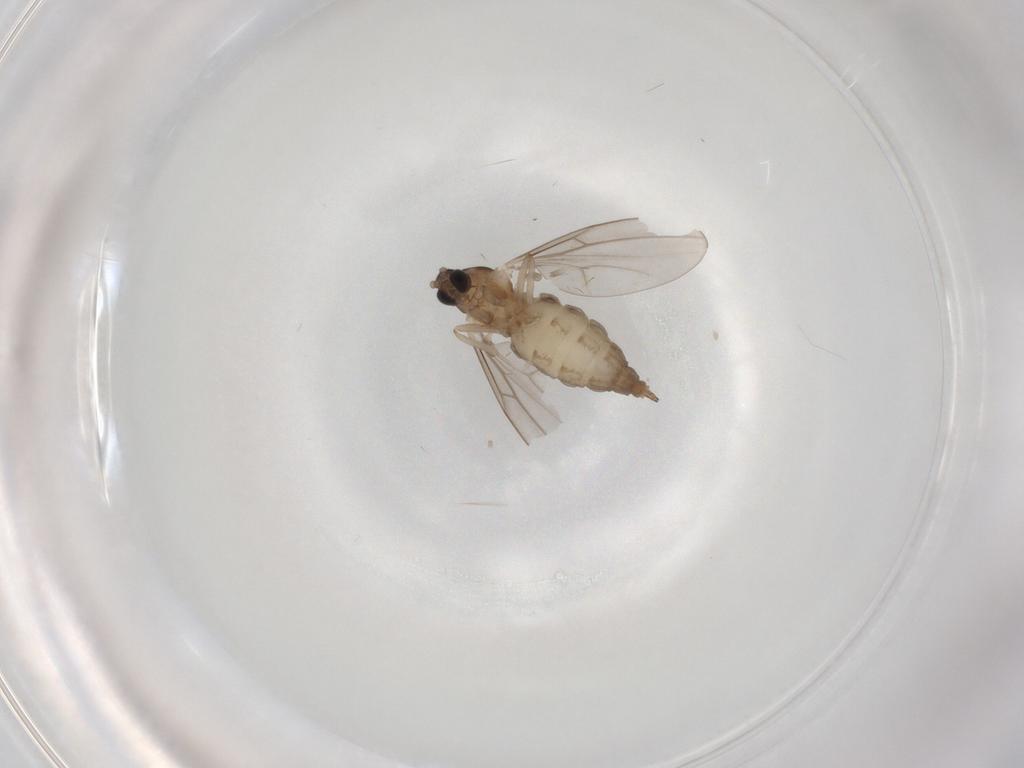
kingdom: Animalia
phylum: Arthropoda
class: Insecta
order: Diptera
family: Cecidomyiidae
